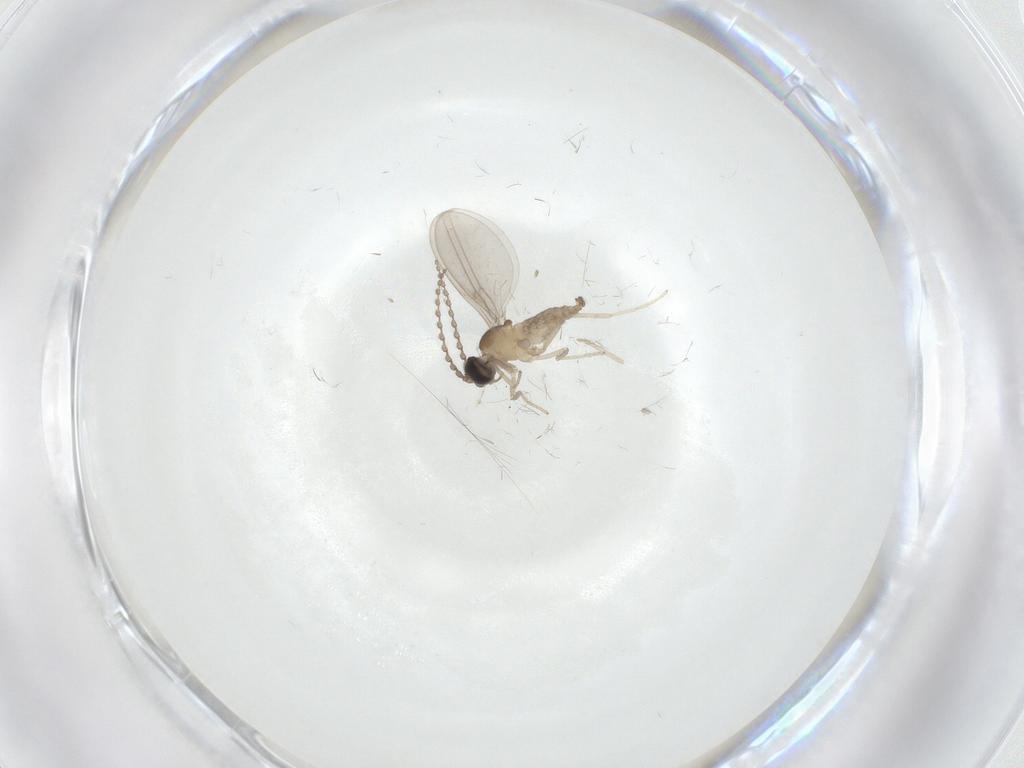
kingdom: Animalia
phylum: Arthropoda
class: Insecta
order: Diptera
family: Psychodidae
